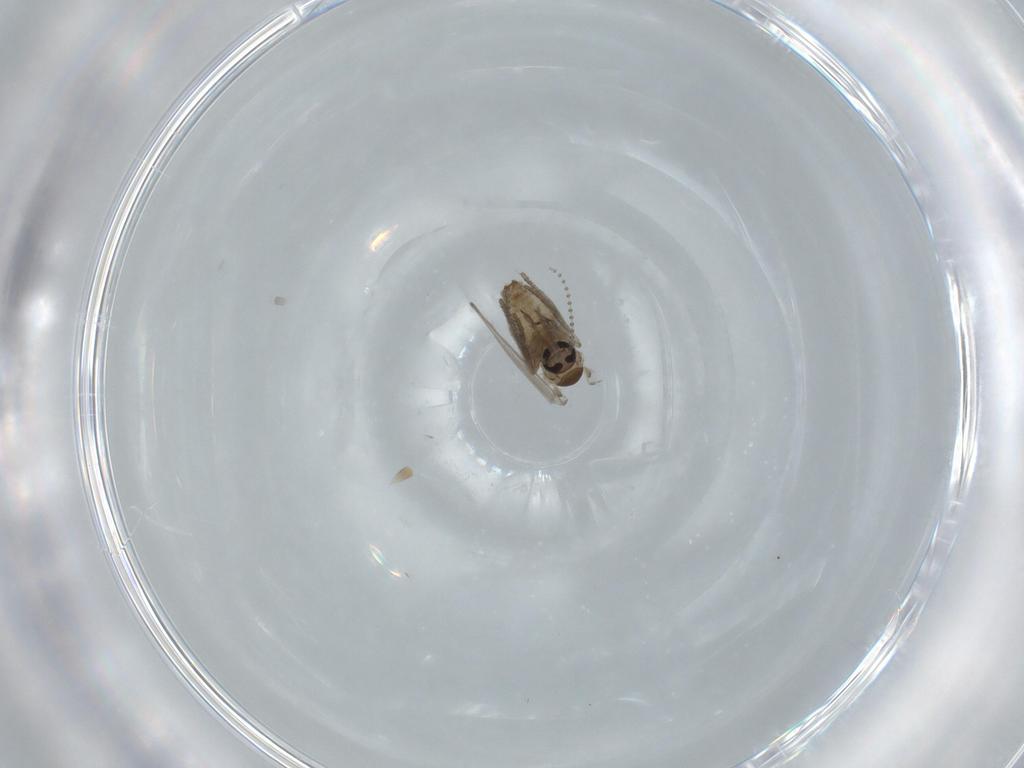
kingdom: Animalia
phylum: Arthropoda
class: Insecta
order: Diptera
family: Psychodidae
